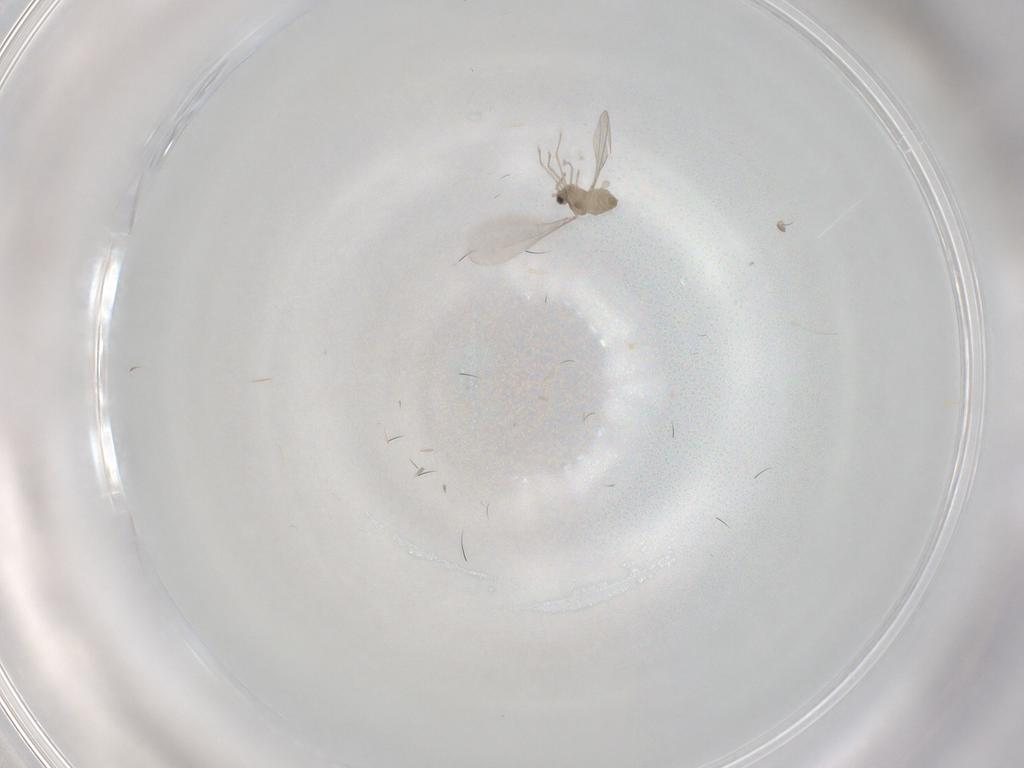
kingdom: Animalia
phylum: Arthropoda
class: Insecta
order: Diptera
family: Cecidomyiidae
